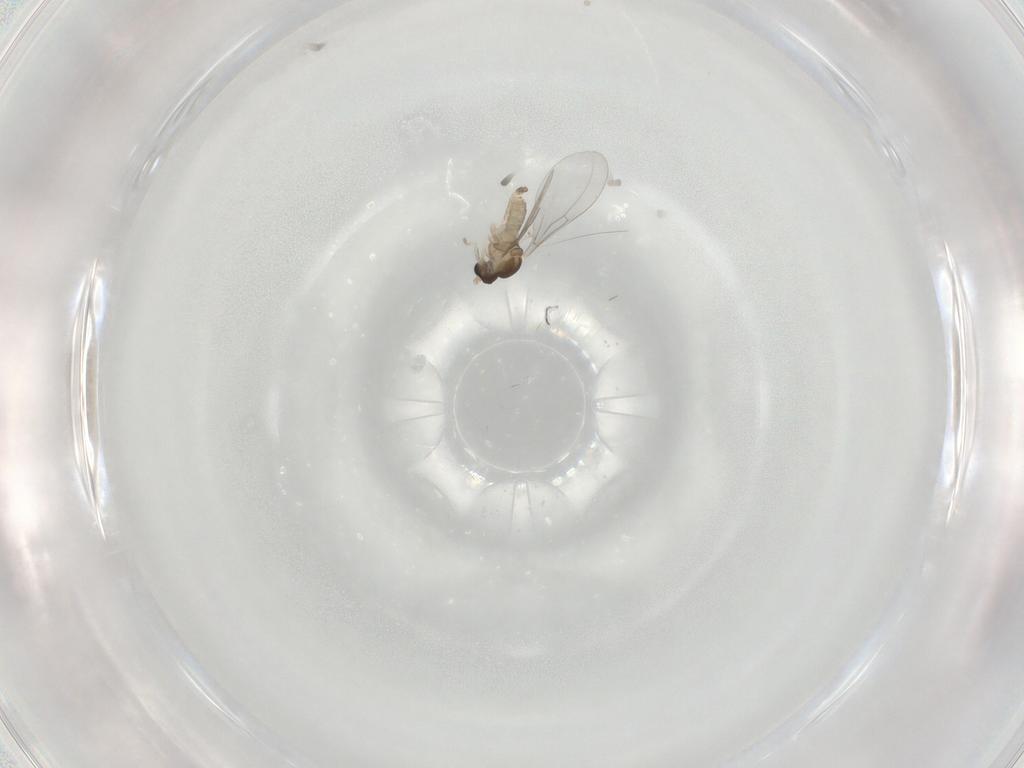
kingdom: Animalia
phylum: Arthropoda
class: Insecta
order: Diptera
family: Cecidomyiidae
